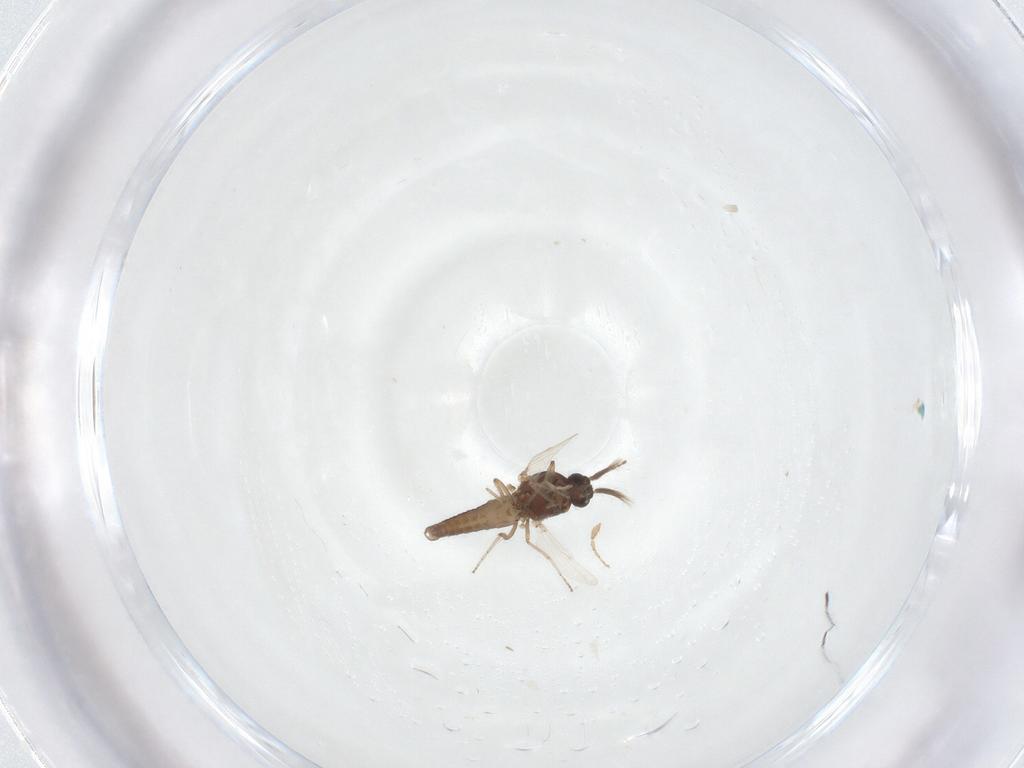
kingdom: Animalia
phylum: Arthropoda
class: Insecta
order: Diptera
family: Ceratopogonidae
